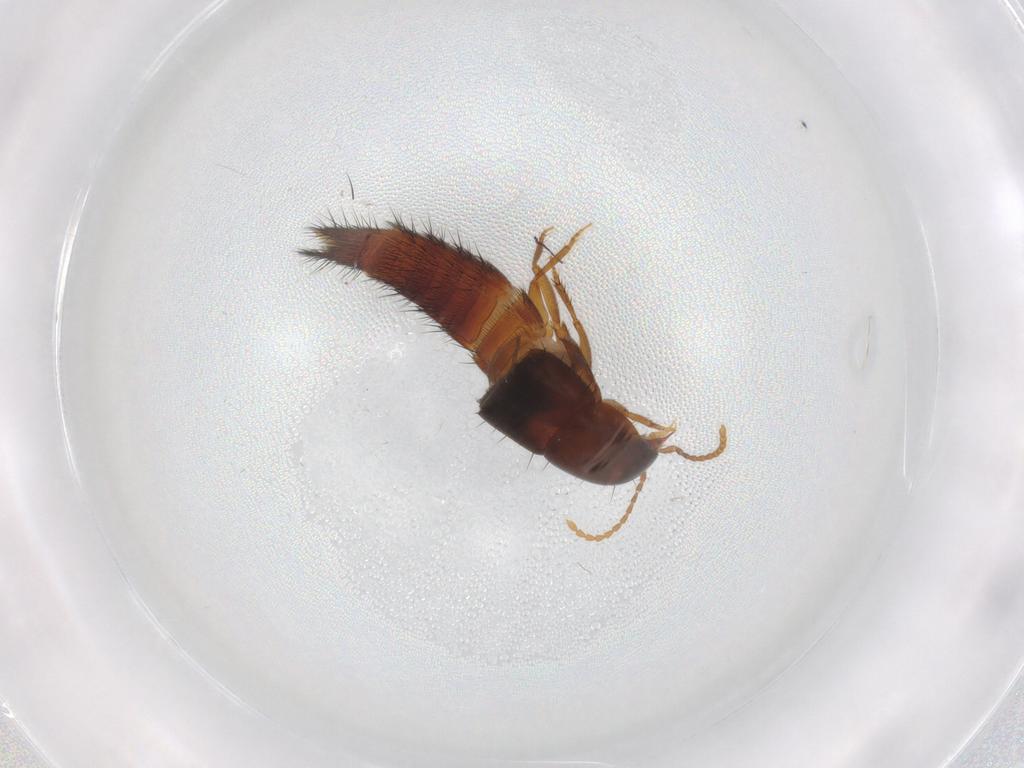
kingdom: Animalia
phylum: Arthropoda
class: Insecta
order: Coleoptera
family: Staphylinidae
